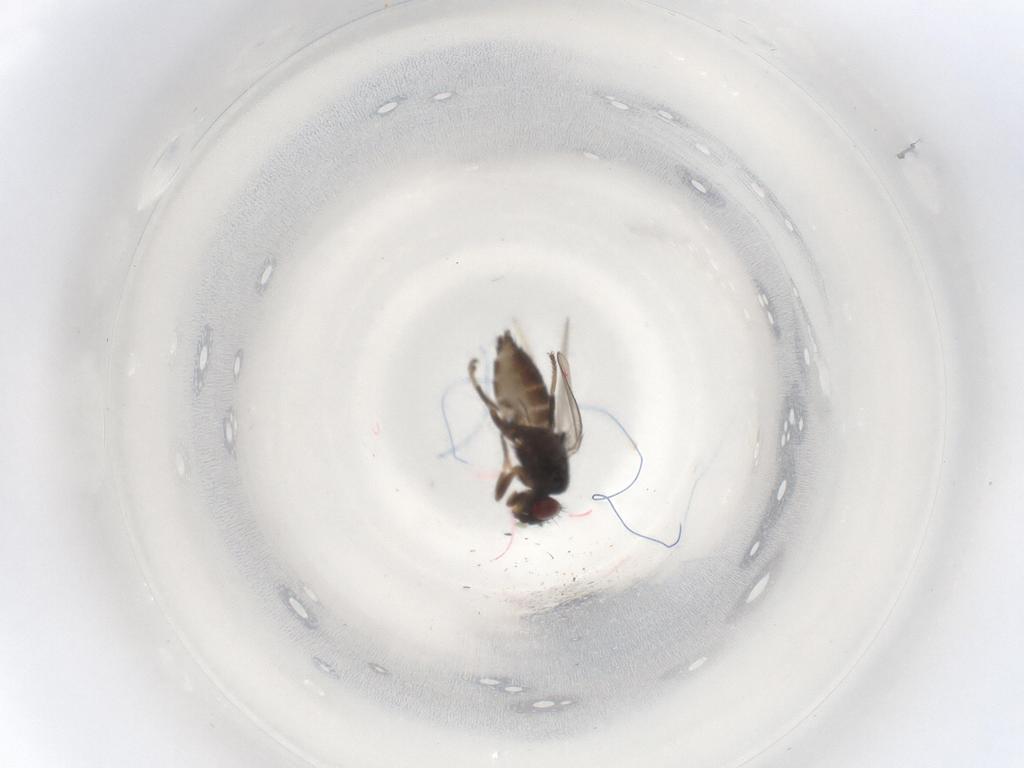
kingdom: Animalia
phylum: Arthropoda
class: Insecta
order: Diptera
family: Milichiidae
